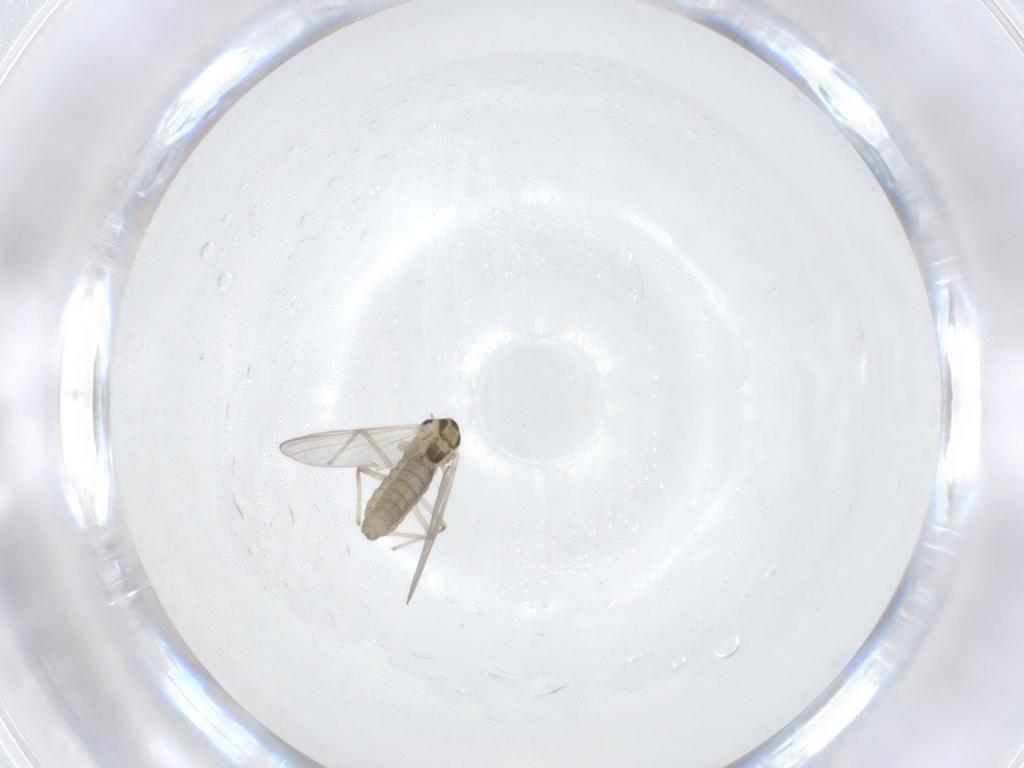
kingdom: Animalia
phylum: Arthropoda
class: Insecta
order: Diptera
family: Chironomidae
